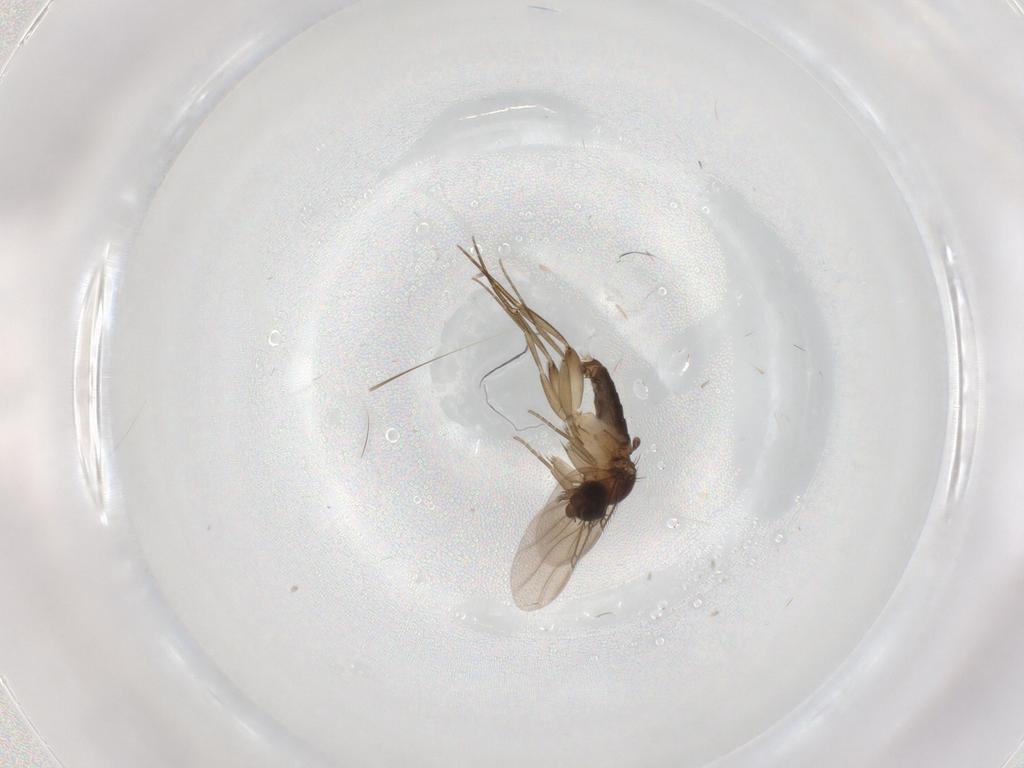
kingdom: Animalia
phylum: Arthropoda
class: Insecta
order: Diptera
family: Phoridae
